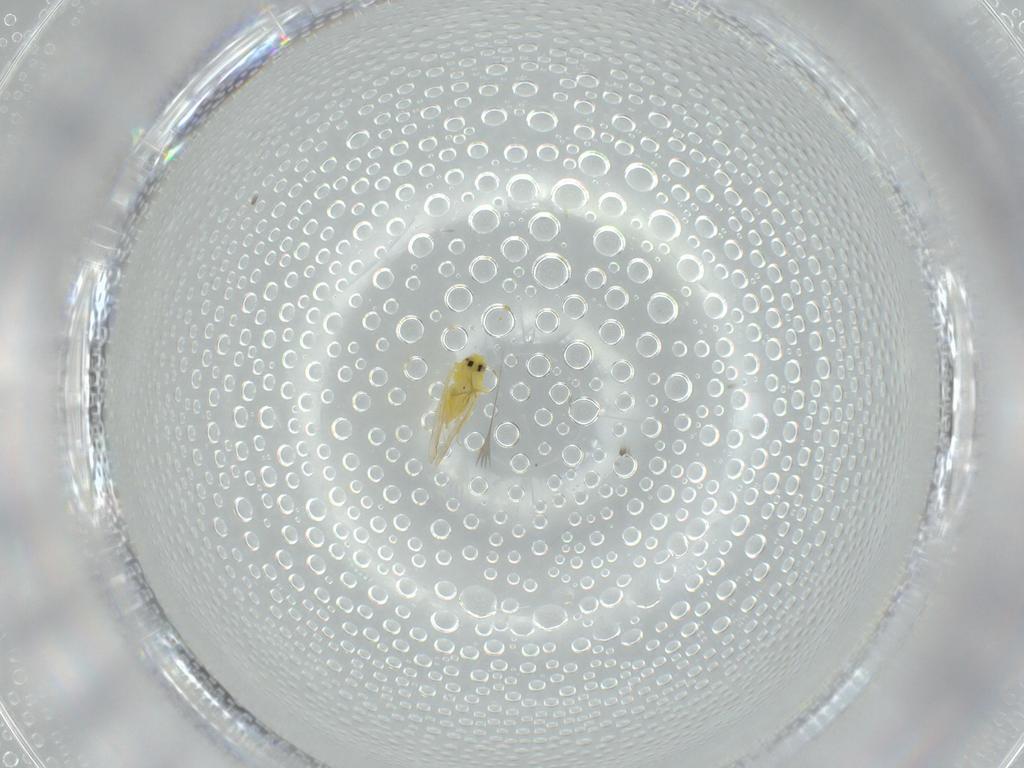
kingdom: Animalia
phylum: Arthropoda
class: Insecta
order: Hemiptera
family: Aleyrodidae
